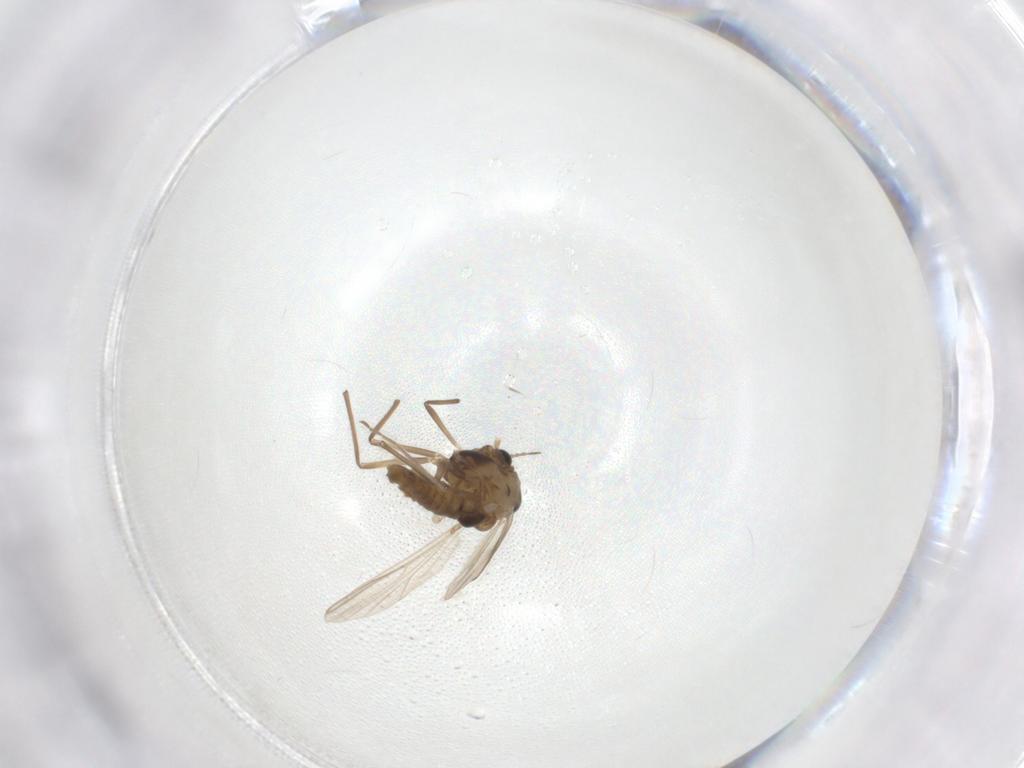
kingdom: Animalia
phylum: Arthropoda
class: Insecta
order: Diptera
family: Chironomidae
